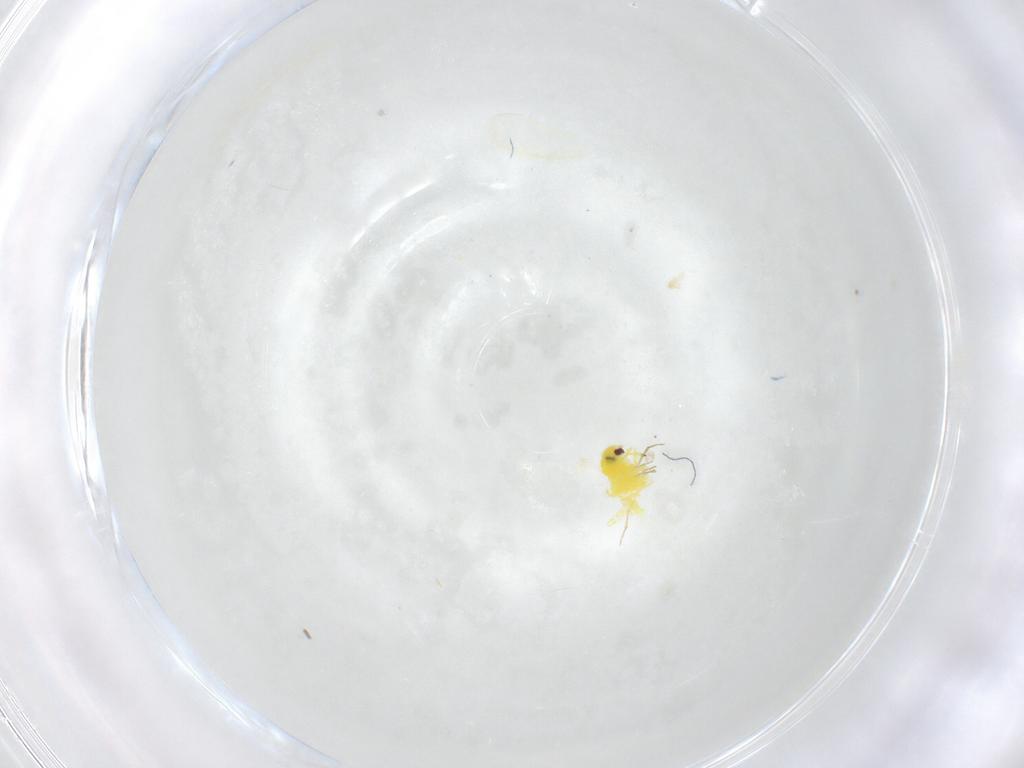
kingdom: Animalia
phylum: Arthropoda
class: Insecta
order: Hemiptera
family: Aleyrodidae
